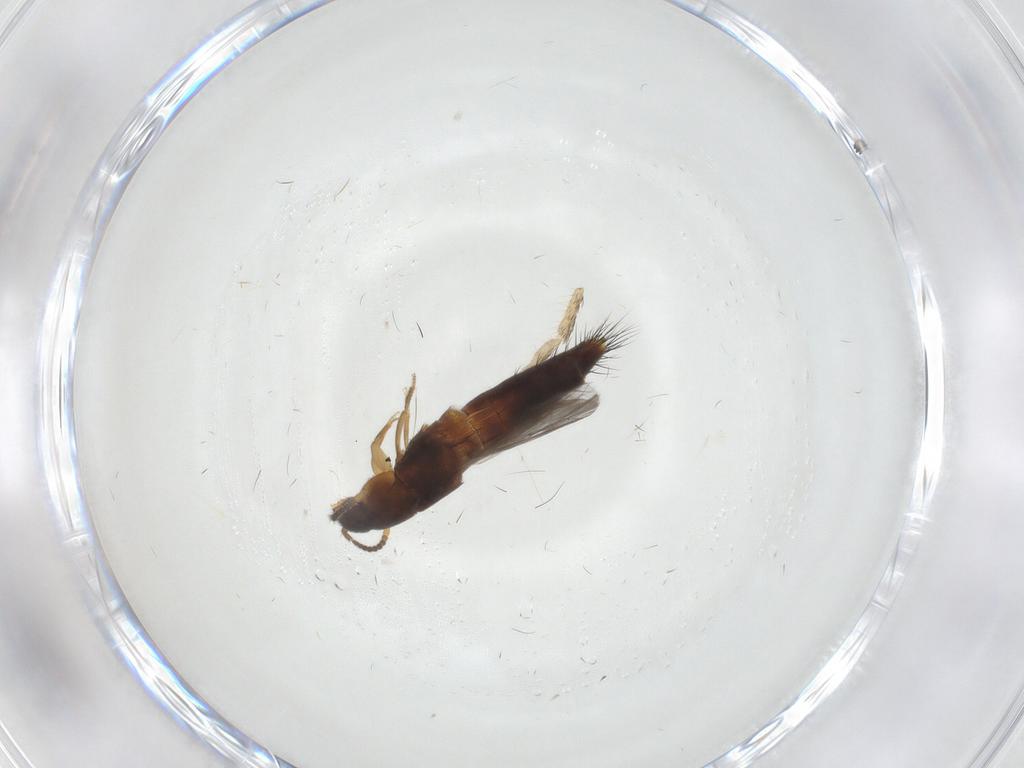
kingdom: Animalia
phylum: Arthropoda
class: Insecta
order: Coleoptera
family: Staphylinidae
